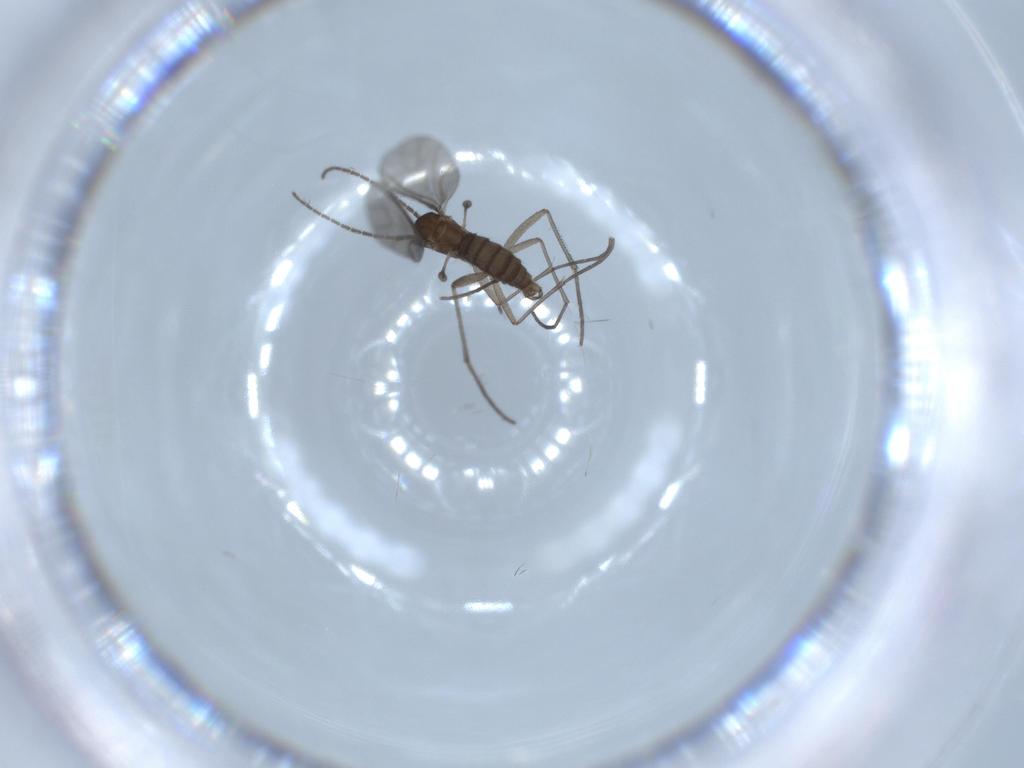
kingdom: Animalia
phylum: Arthropoda
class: Insecta
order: Diptera
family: Sciaridae
